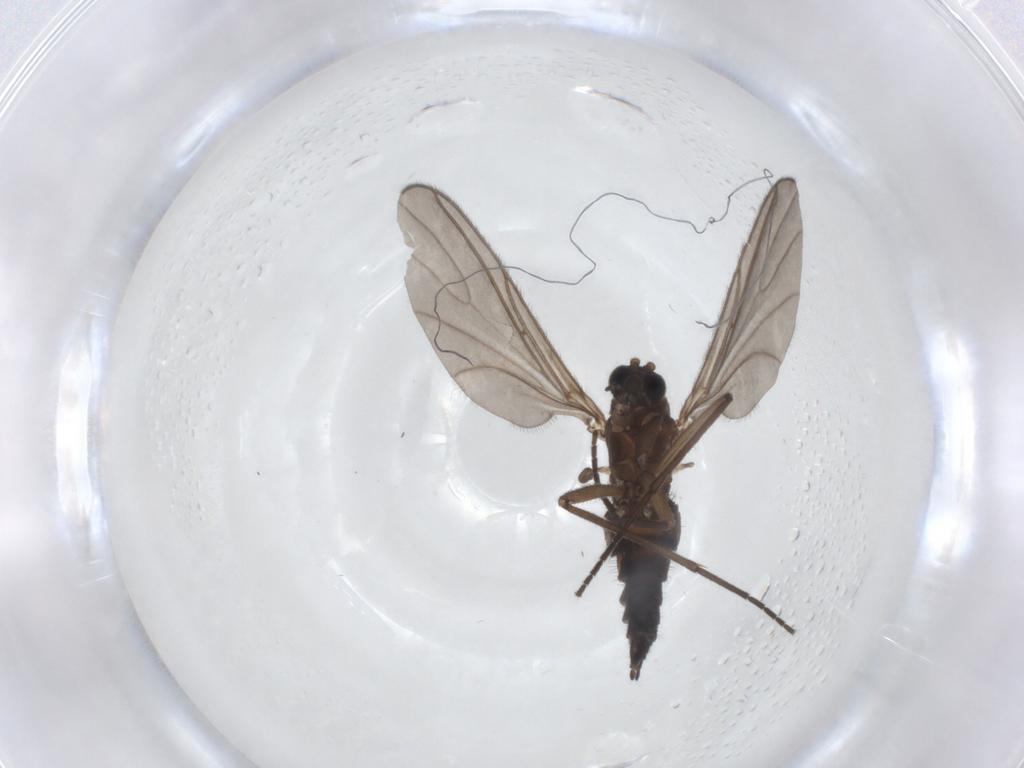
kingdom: Animalia
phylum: Arthropoda
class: Insecta
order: Diptera
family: Sciaridae
